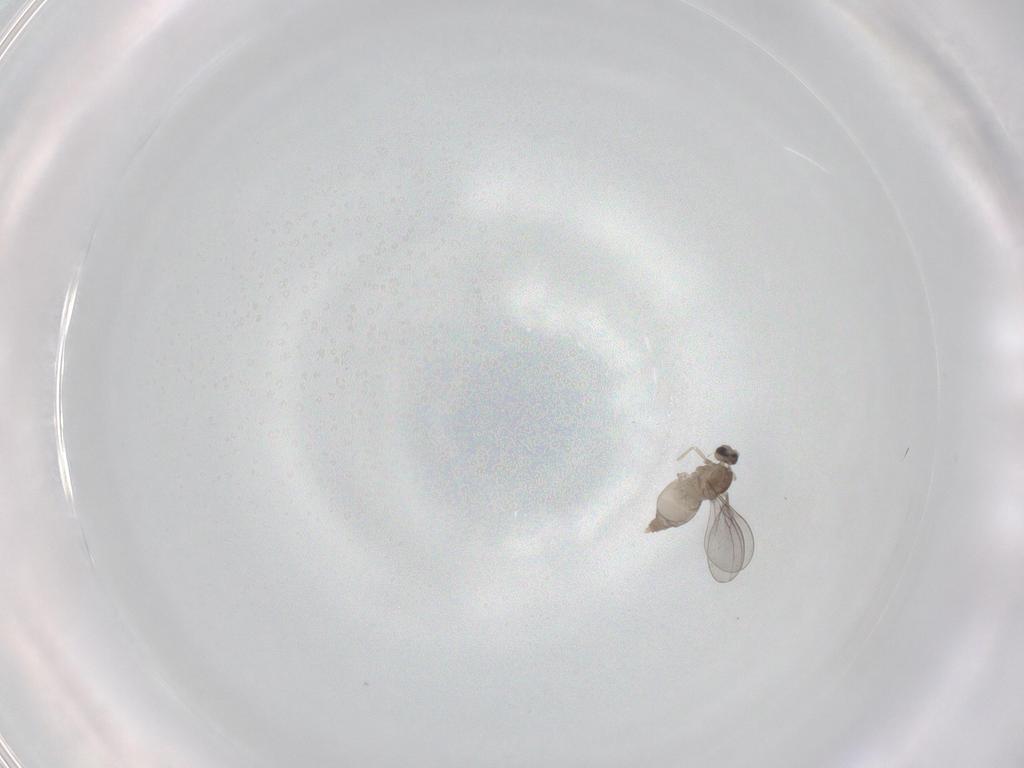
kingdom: Animalia
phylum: Arthropoda
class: Insecta
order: Diptera
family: Cecidomyiidae
